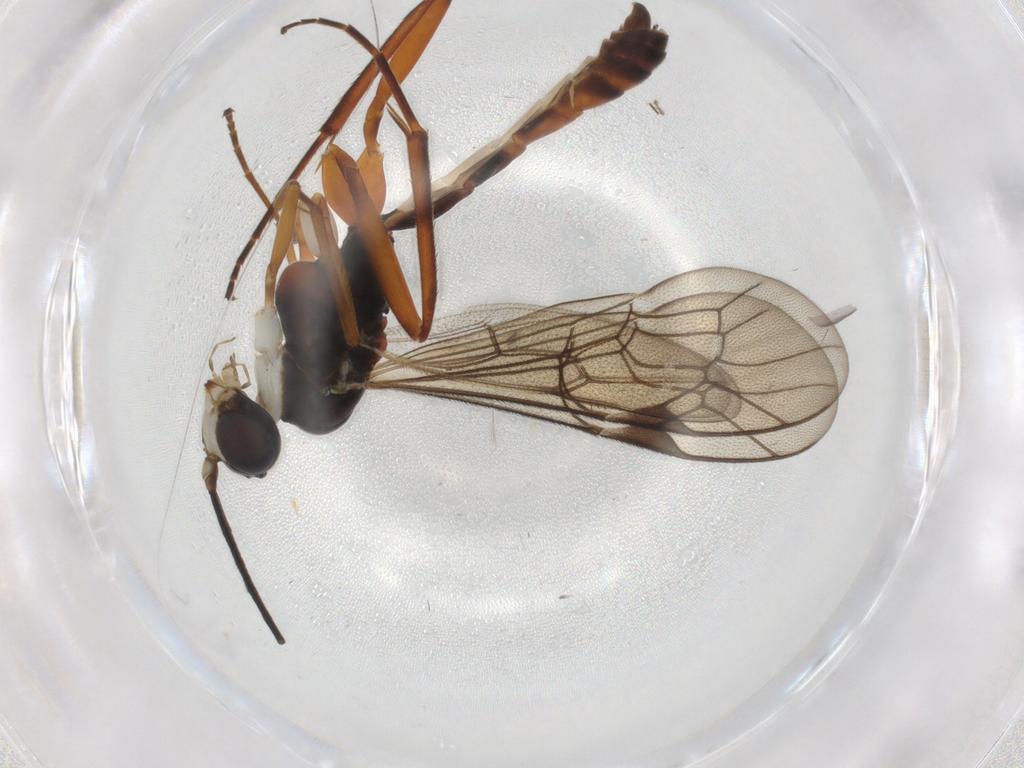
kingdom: Animalia
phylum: Arthropoda
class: Insecta
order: Hymenoptera
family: Ichneumonidae
